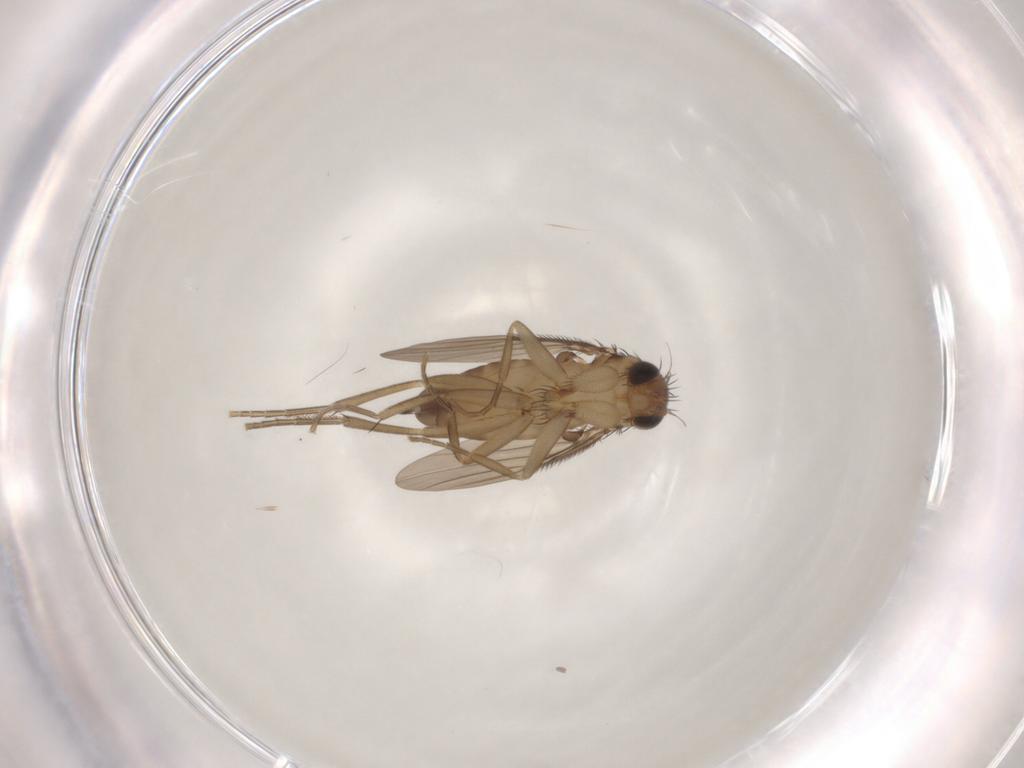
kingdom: Animalia
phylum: Arthropoda
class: Insecta
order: Diptera
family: Phoridae
